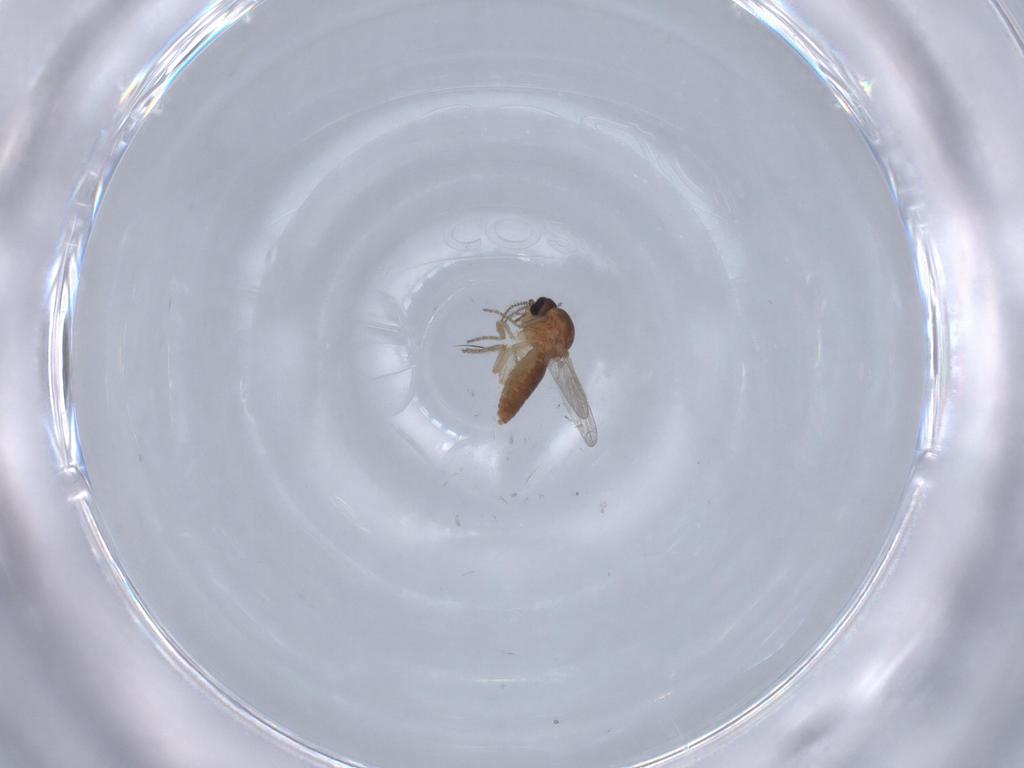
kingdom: Animalia
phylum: Arthropoda
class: Insecta
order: Diptera
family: Ceratopogonidae
